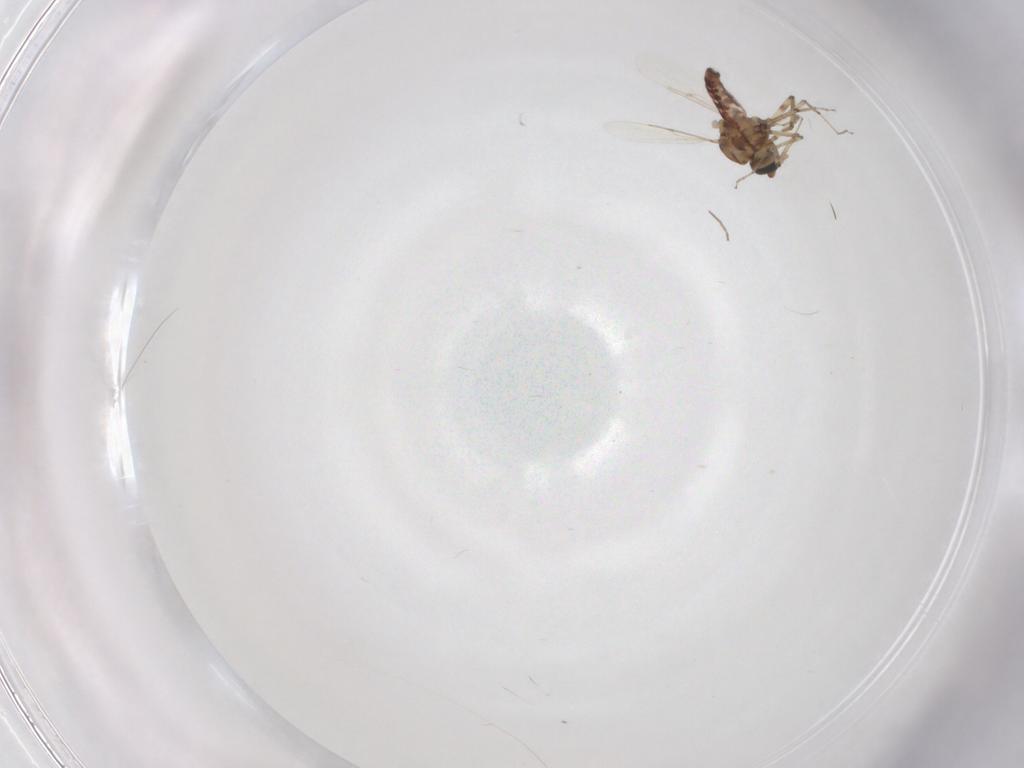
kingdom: Animalia
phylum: Arthropoda
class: Insecta
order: Diptera
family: Ceratopogonidae
